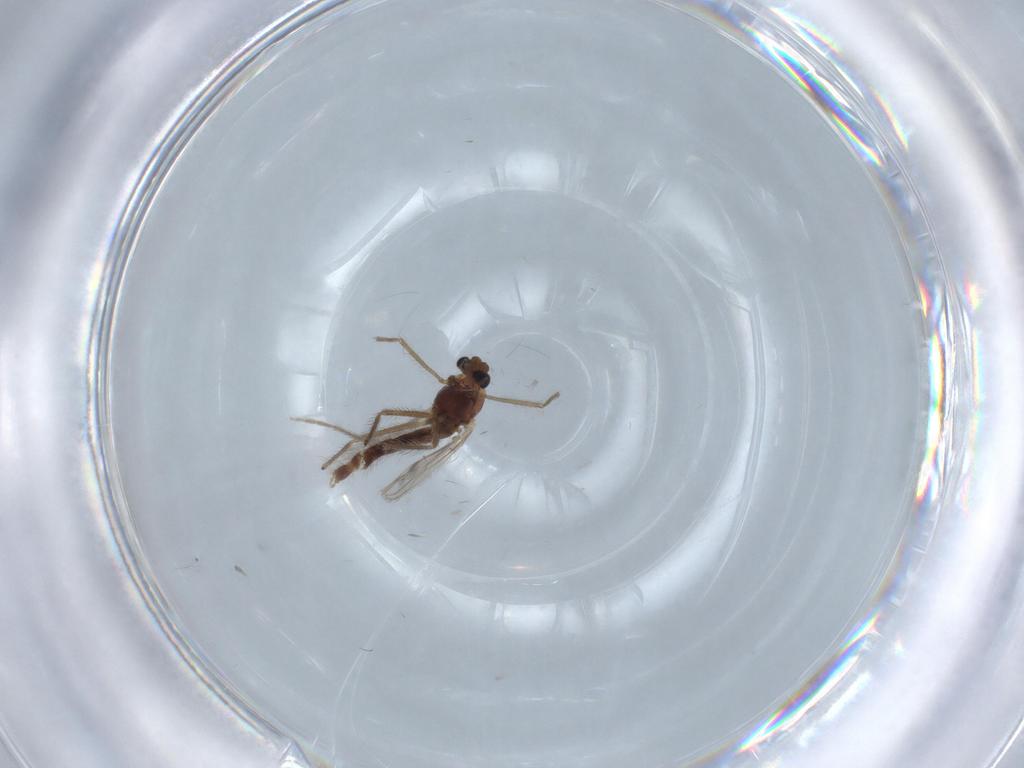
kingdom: Animalia
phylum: Arthropoda
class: Insecta
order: Diptera
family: Chironomidae
